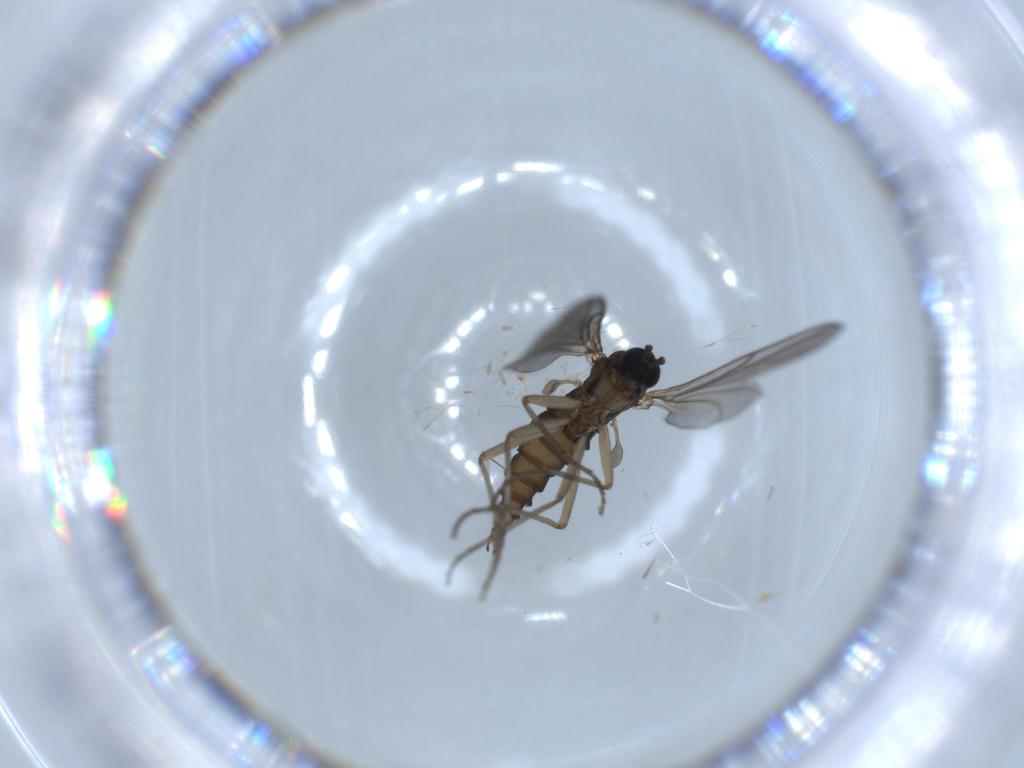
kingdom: Animalia
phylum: Arthropoda
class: Insecta
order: Diptera
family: Sciaridae
